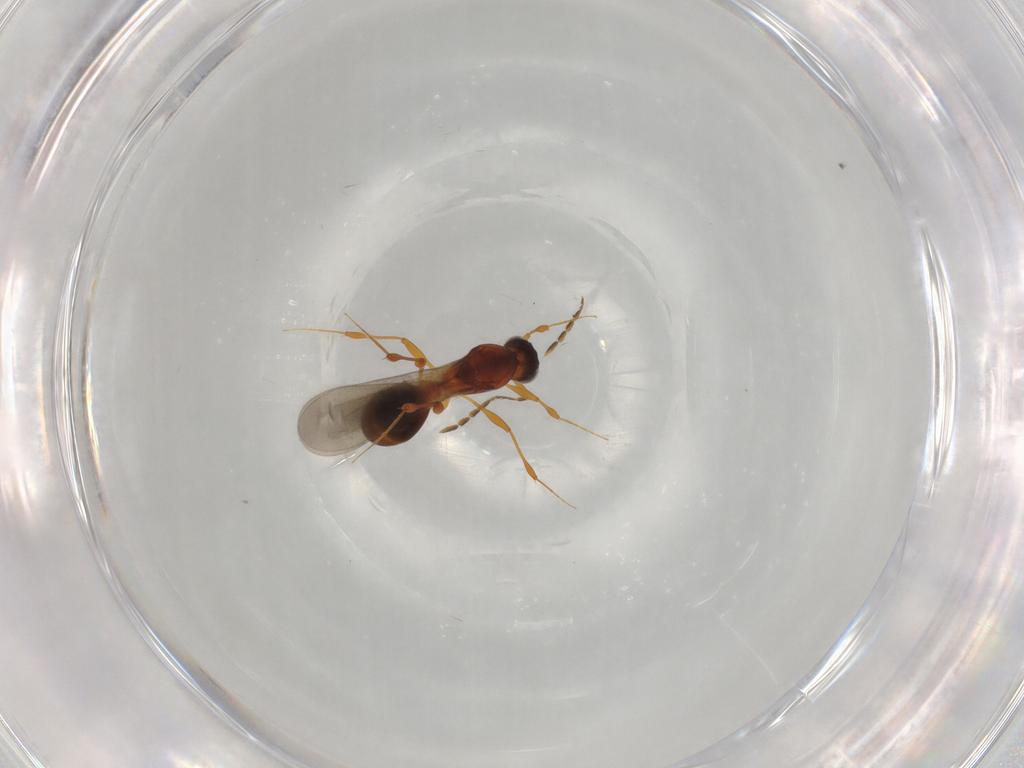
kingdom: Animalia
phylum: Arthropoda
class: Insecta
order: Hymenoptera
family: Platygastridae
